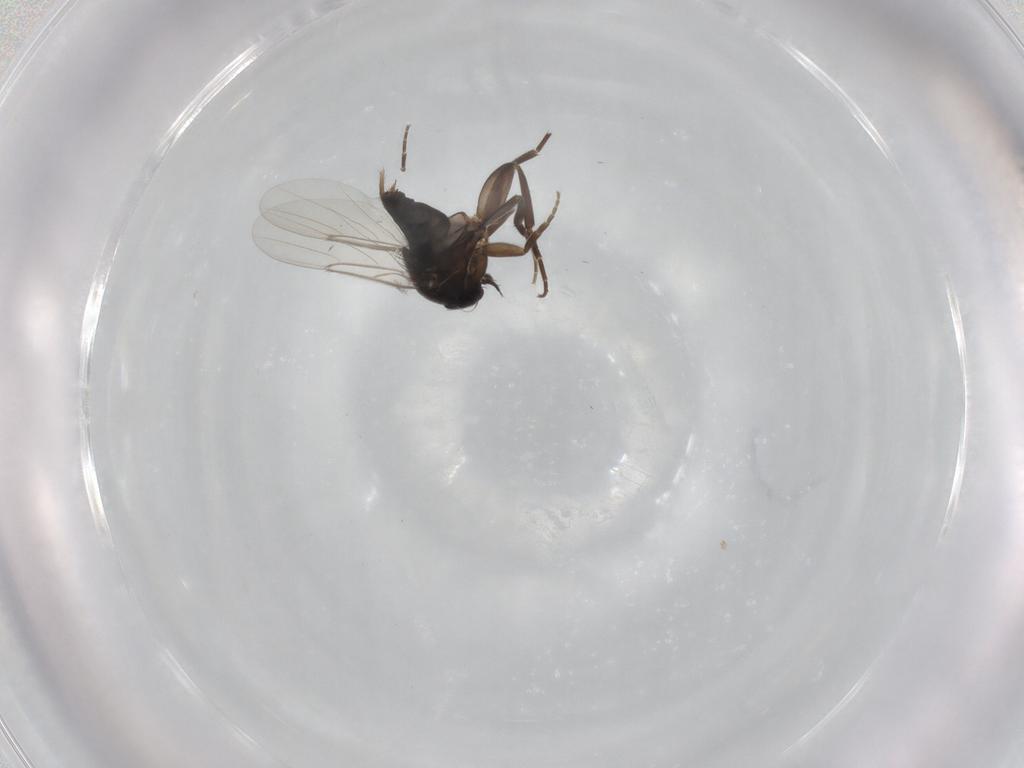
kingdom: Animalia
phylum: Arthropoda
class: Insecta
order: Diptera
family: Phoridae
